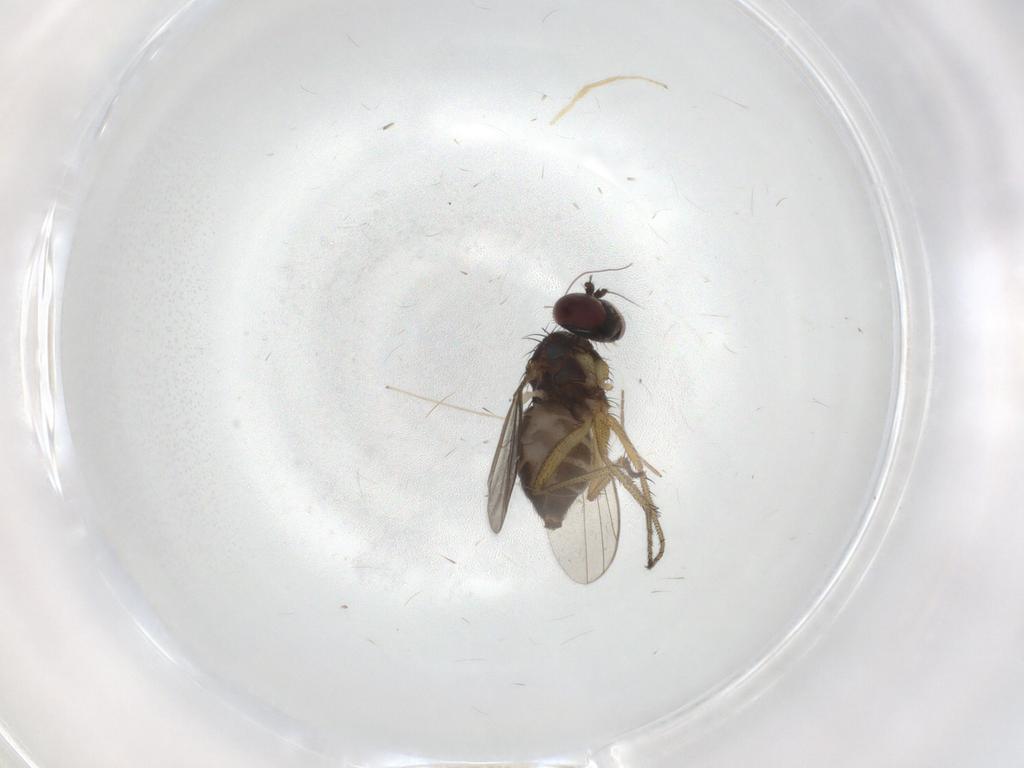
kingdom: Animalia
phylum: Arthropoda
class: Insecta
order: Diptera
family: Chironomidae
